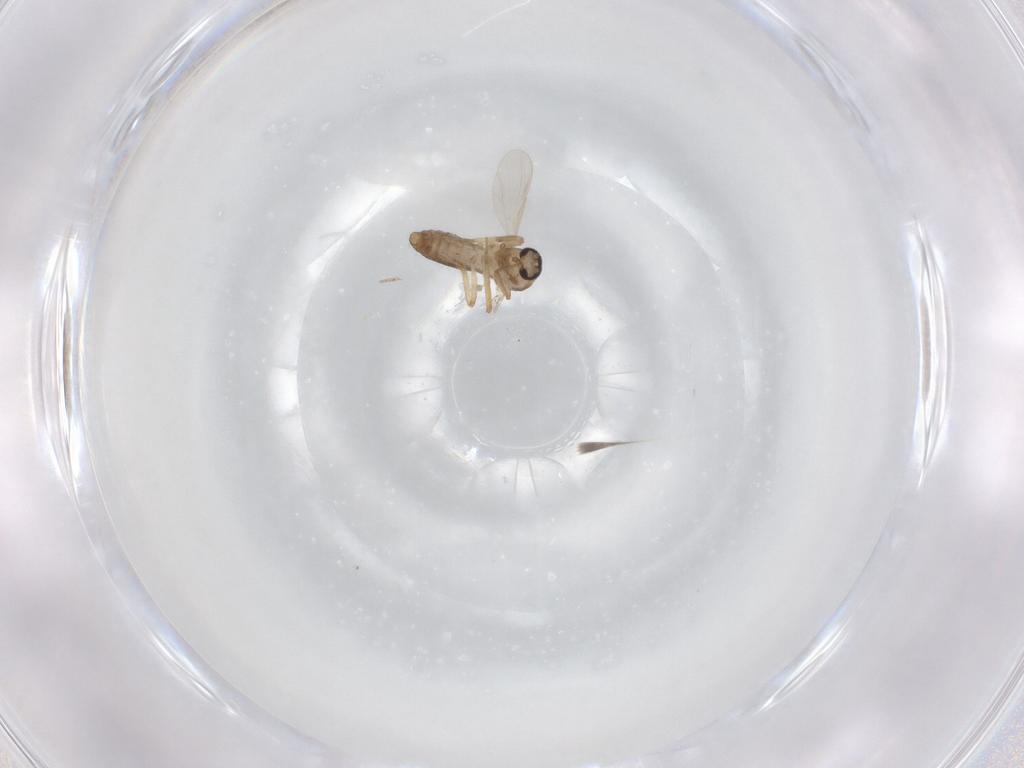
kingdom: Animalia
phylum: Arthropoda
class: Insecta
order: Diptera
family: Ceratopogonidae
